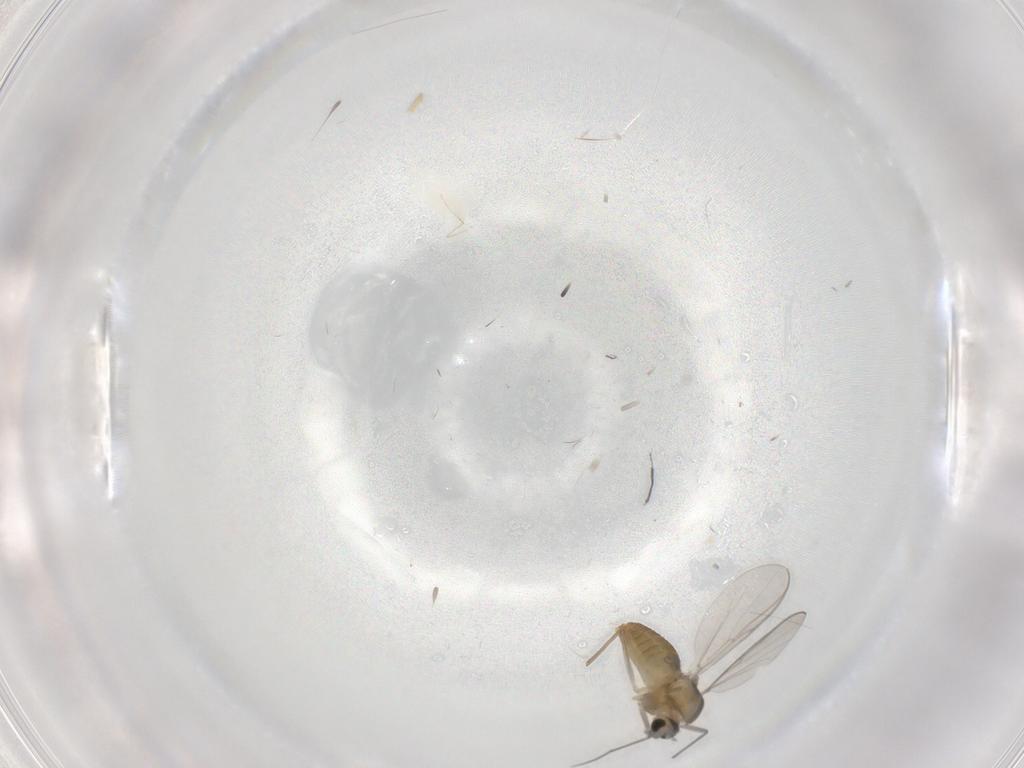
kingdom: Animalia
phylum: Arthropoda
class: Insecta
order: Diptera
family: Cecidomyiidae
